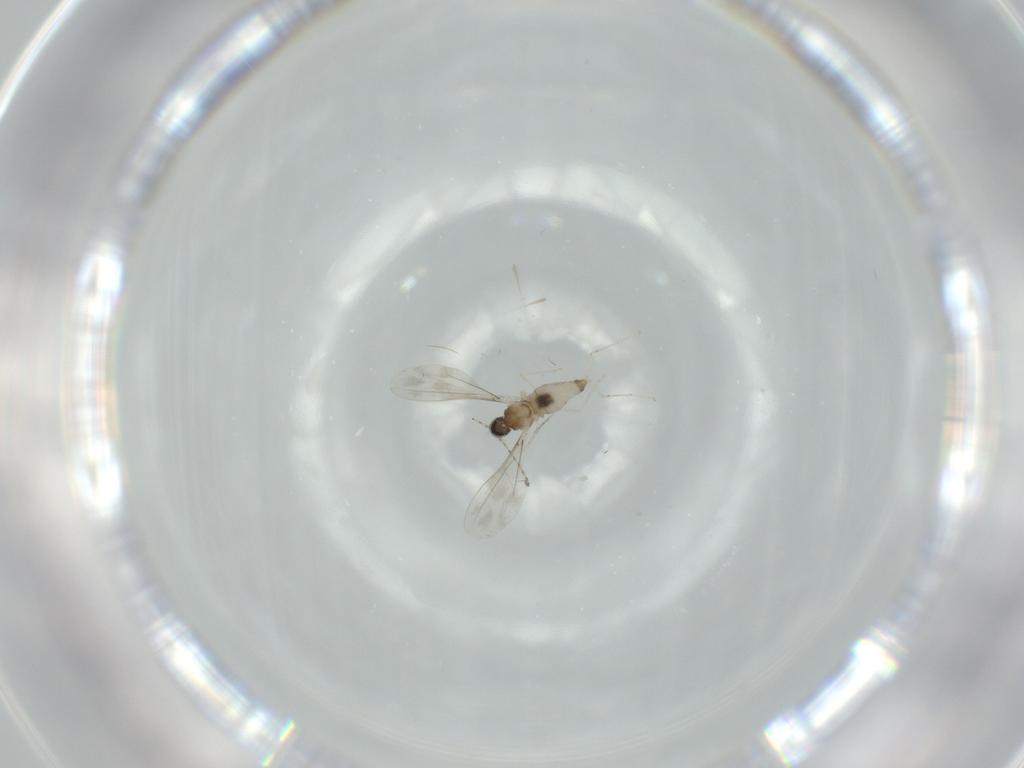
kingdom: Animalia
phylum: Arthropoda
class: Insecta
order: Diptera
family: Cecidomyiidae
